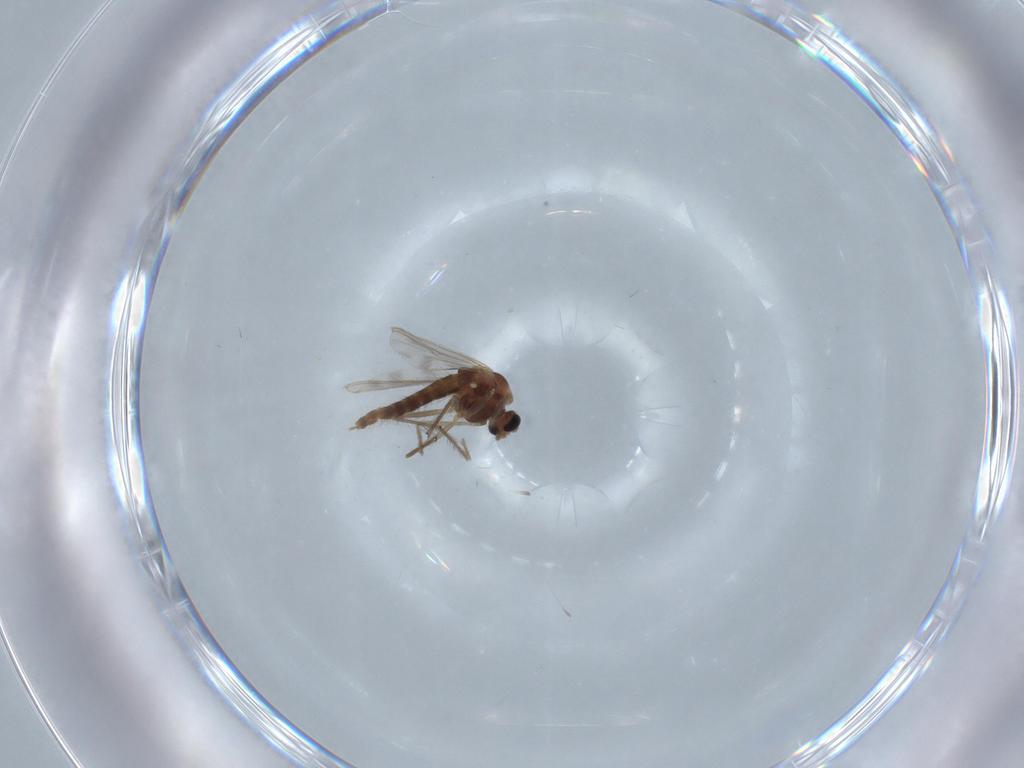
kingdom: Animalia
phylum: Arthropoda
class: Insecta
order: Diptera
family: Chironomidae
